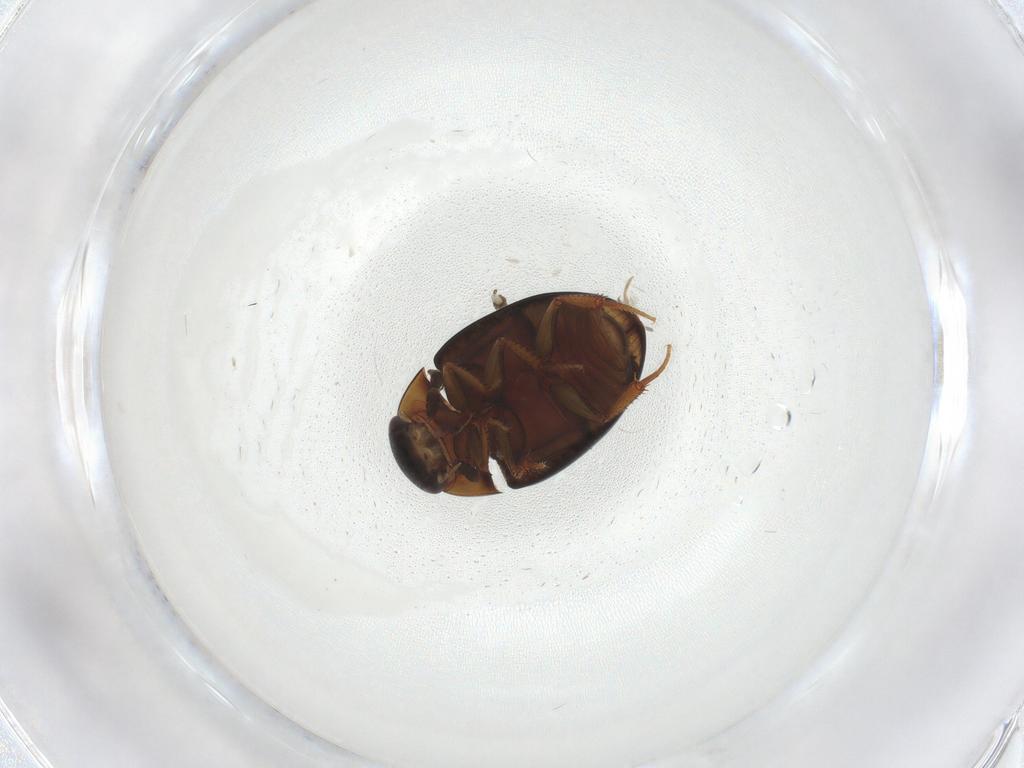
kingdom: Animalia
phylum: Arthropoda
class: Insecta
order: Coleoptera
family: Hydrophilidae
